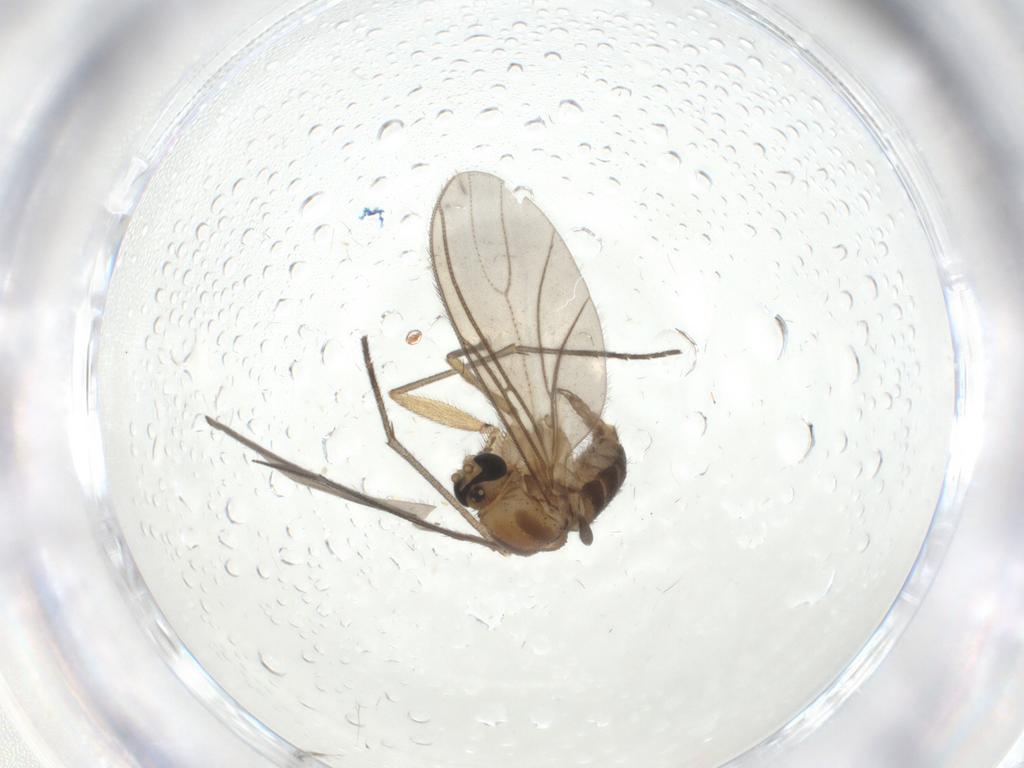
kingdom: Animalia
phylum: Arthropoda
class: Insecta
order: Diptera
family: Sciaridae
